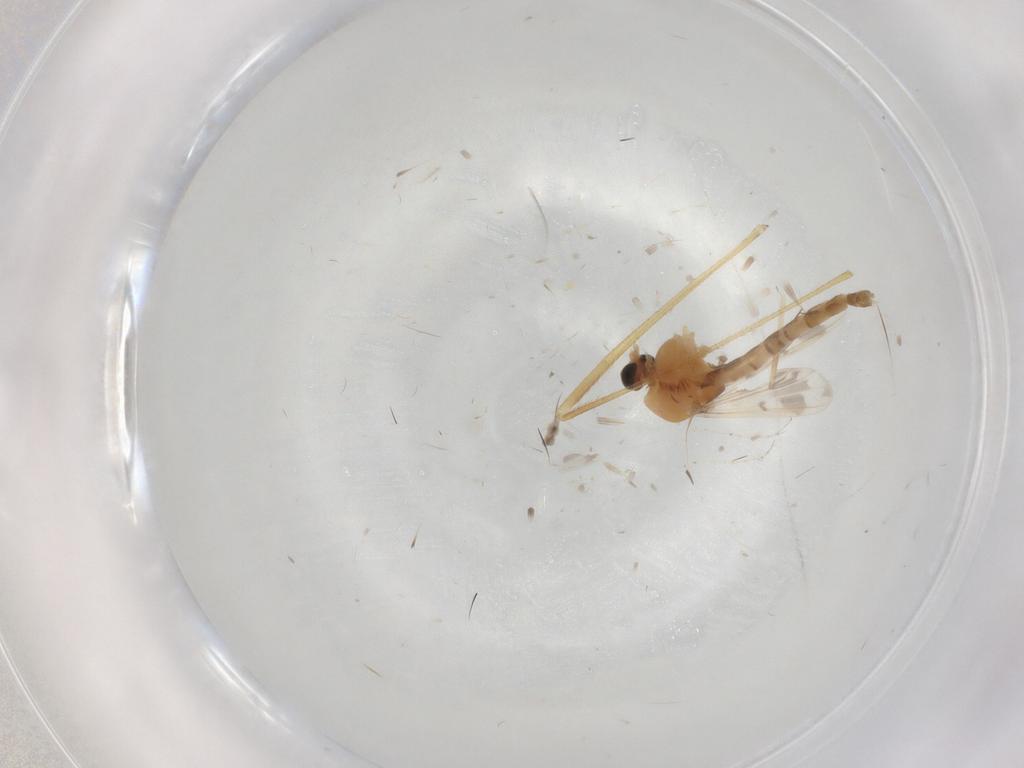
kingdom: Animalia
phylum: Arthropoda
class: Insecta
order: Diptera
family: Chironomidae
